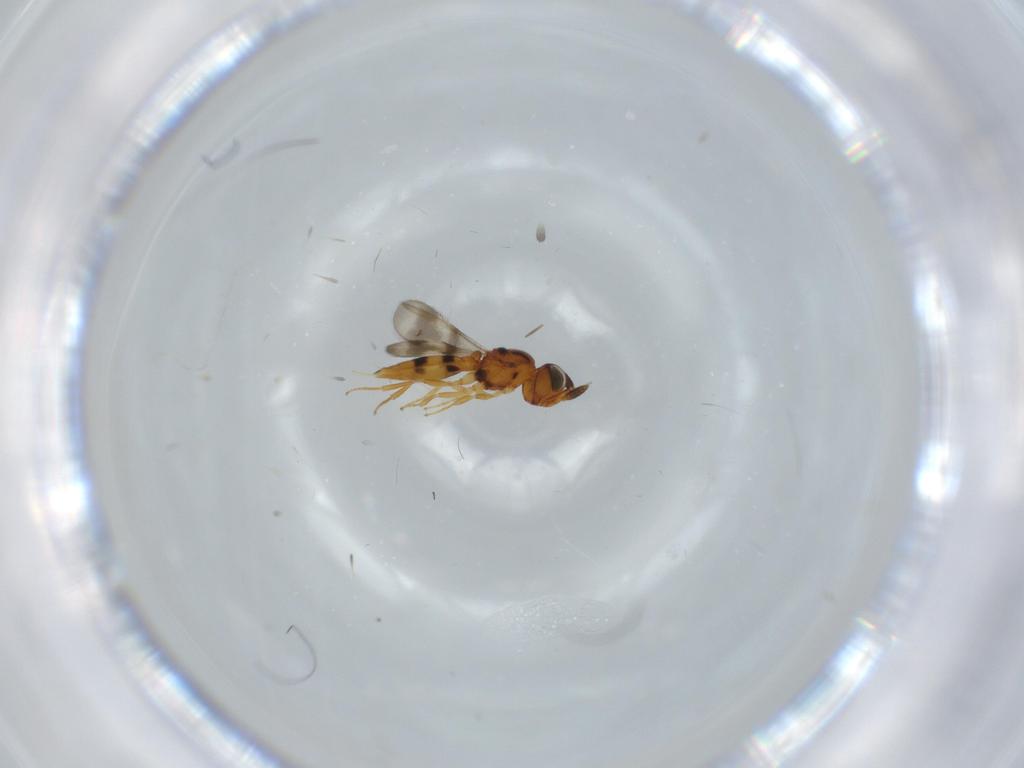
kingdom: Animalia
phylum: Arthropoda
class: Insecta
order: Hymenoptera
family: Scelionidae
